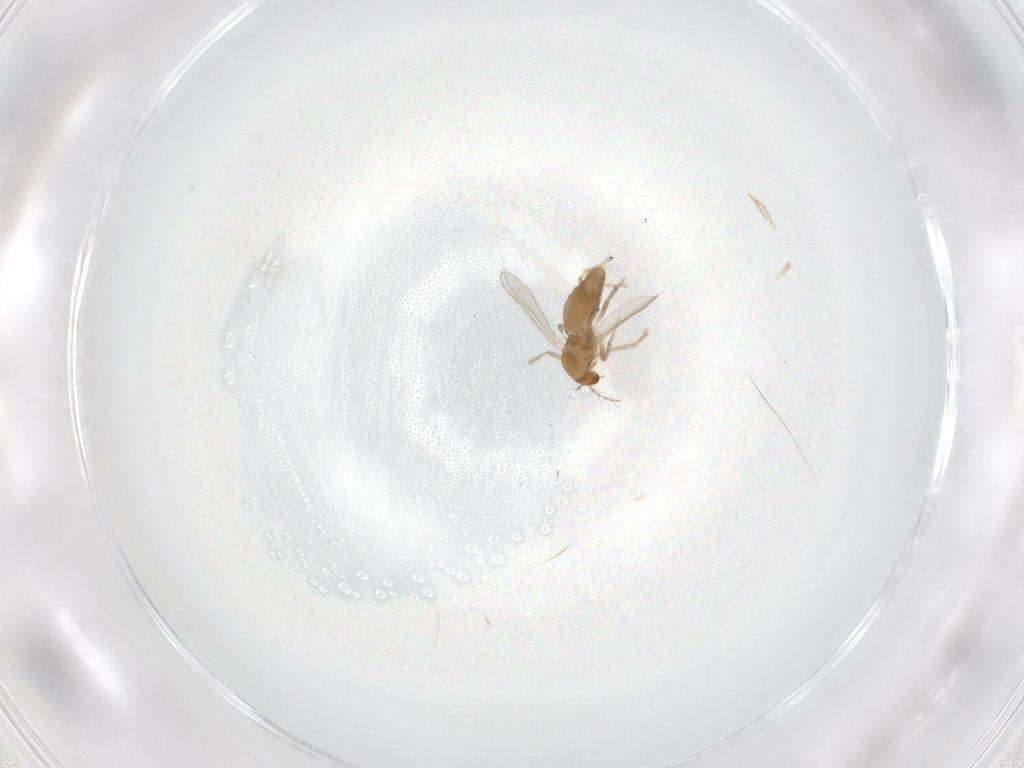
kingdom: Animalia
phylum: Arthropoda
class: Insecta
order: Diptera
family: Chironomidae
